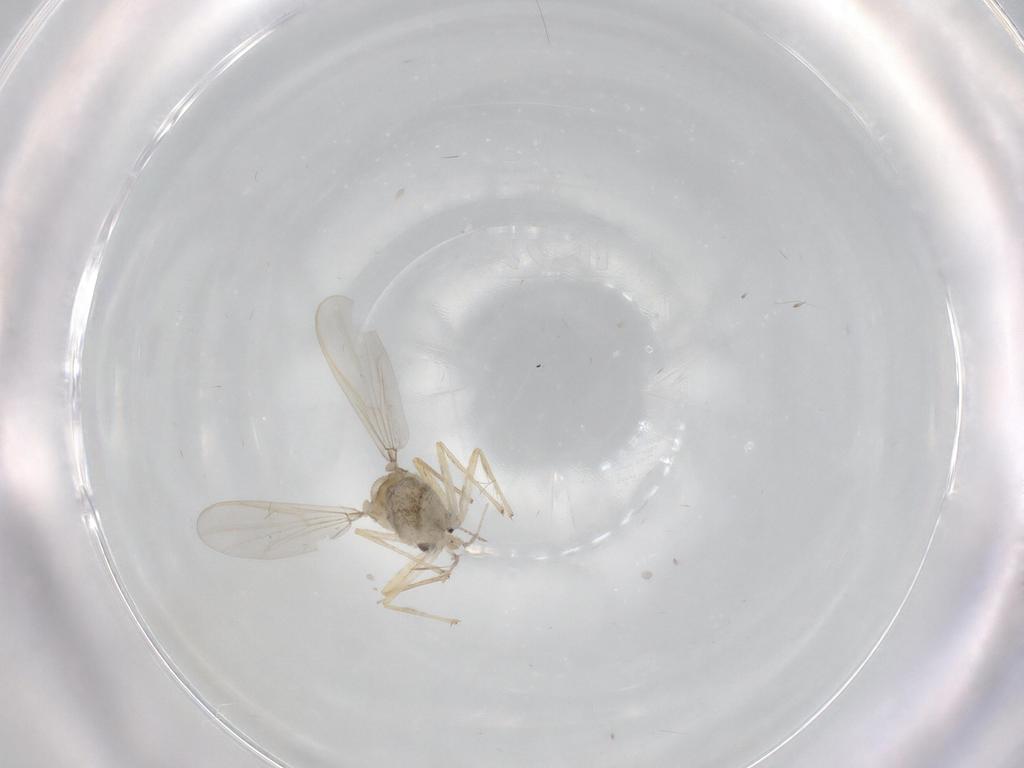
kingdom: Animalia
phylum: Arthropoda
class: Insecta
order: Diptera
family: Chironomidae
